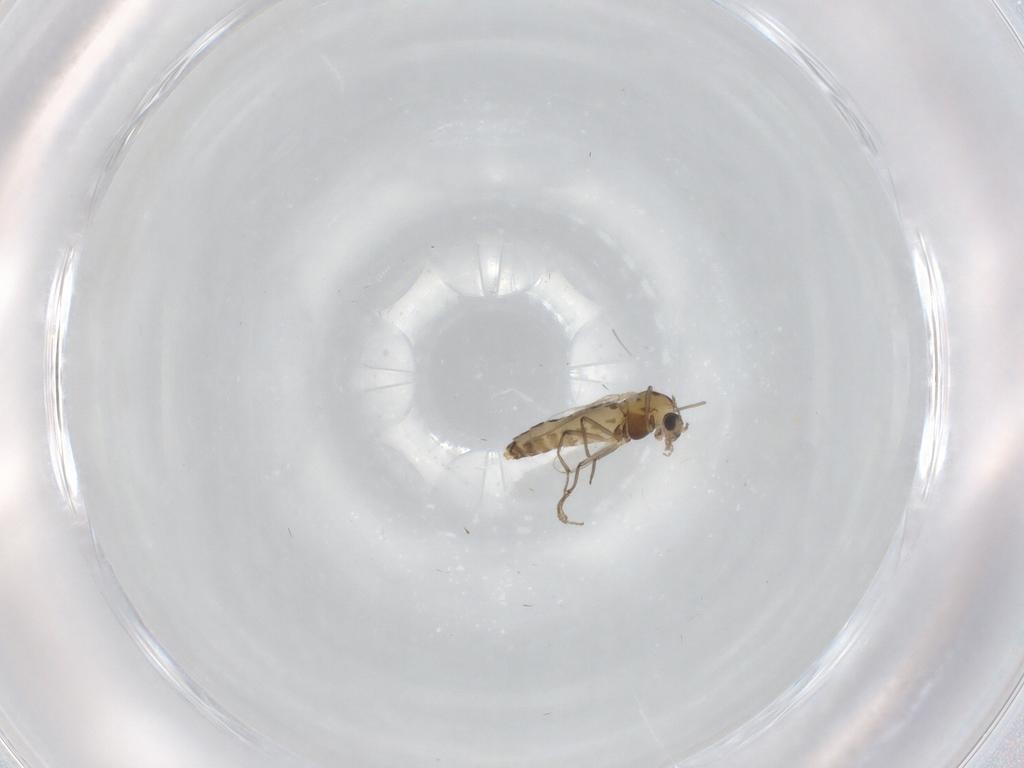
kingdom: Animalia
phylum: Arthropoda
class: Insecta
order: Diptera
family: Chironomidae
